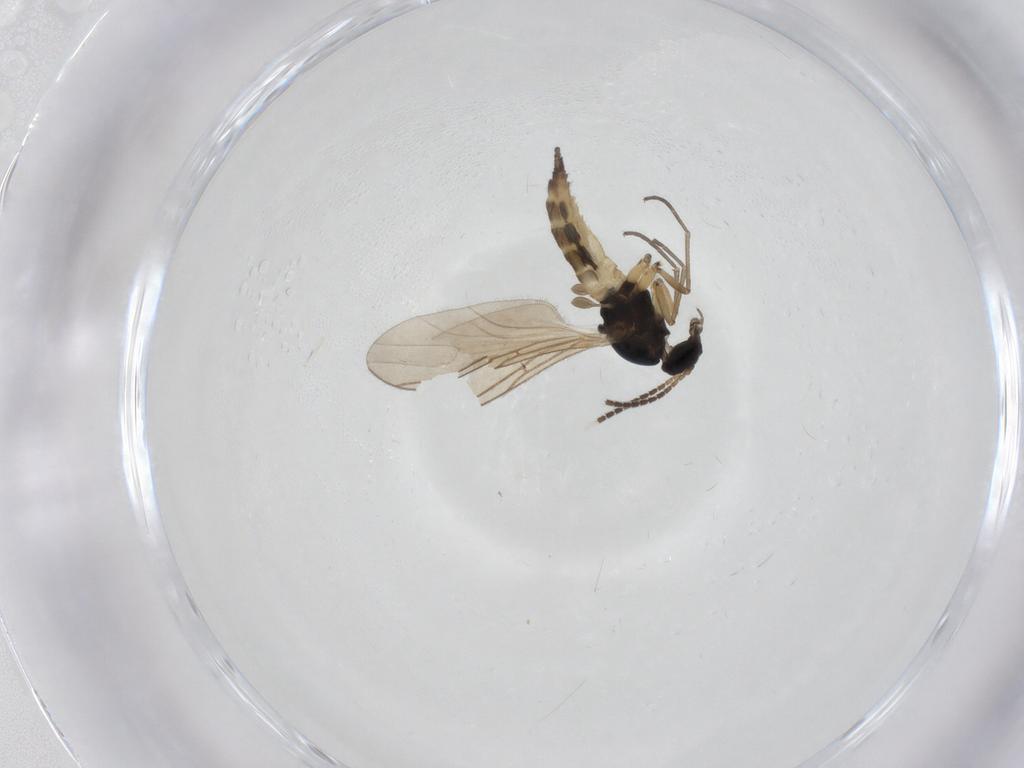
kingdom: Animalia
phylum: Arthropoda
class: Insecta
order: Diptera
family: Sciaridae
